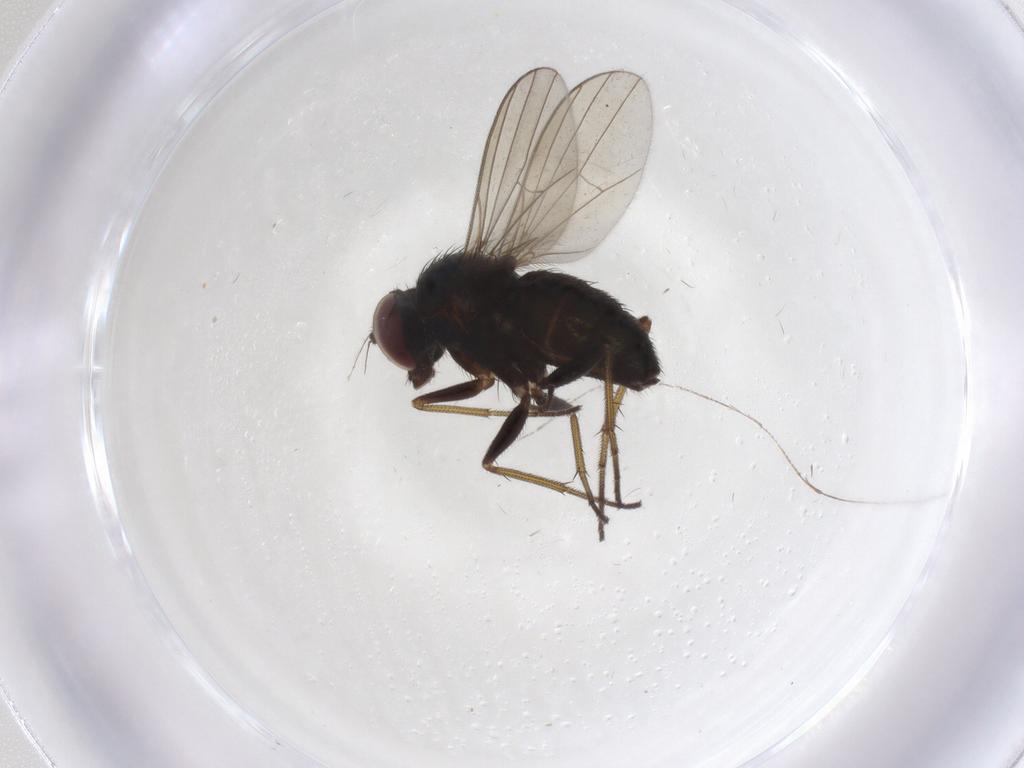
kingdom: Animalia
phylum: Arthropoda
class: Insecta
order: Diptera
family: Dolichopodidae
